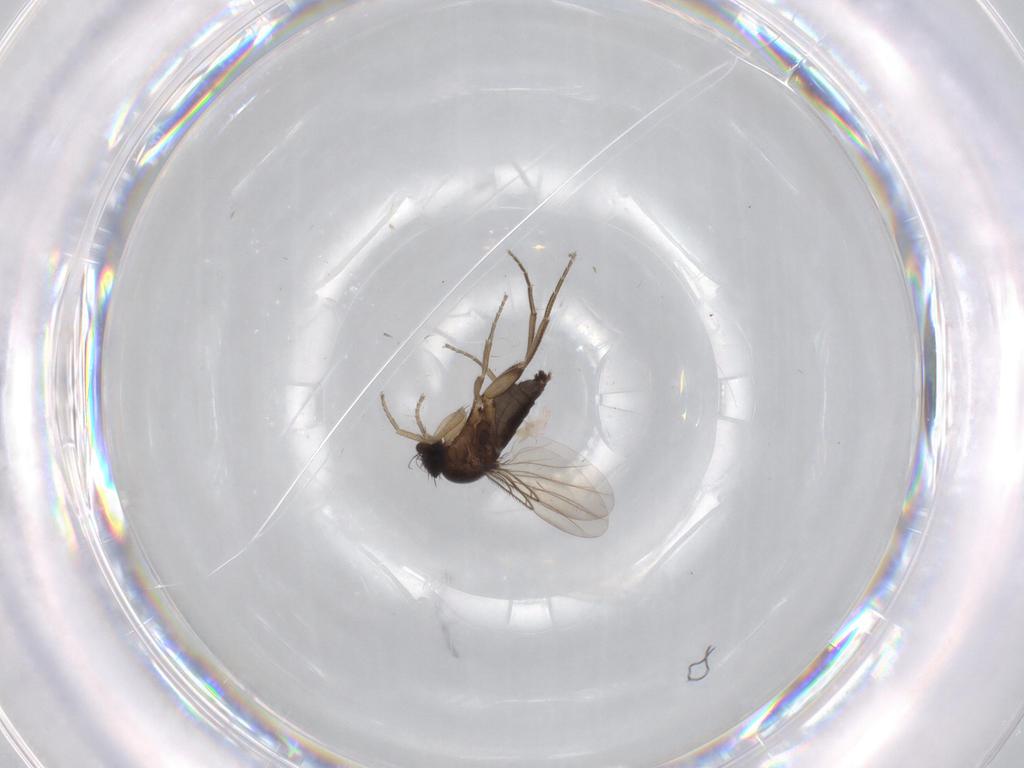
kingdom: Animalia
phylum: Arthropoda
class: Insecta
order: Diptera
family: Phoridae
